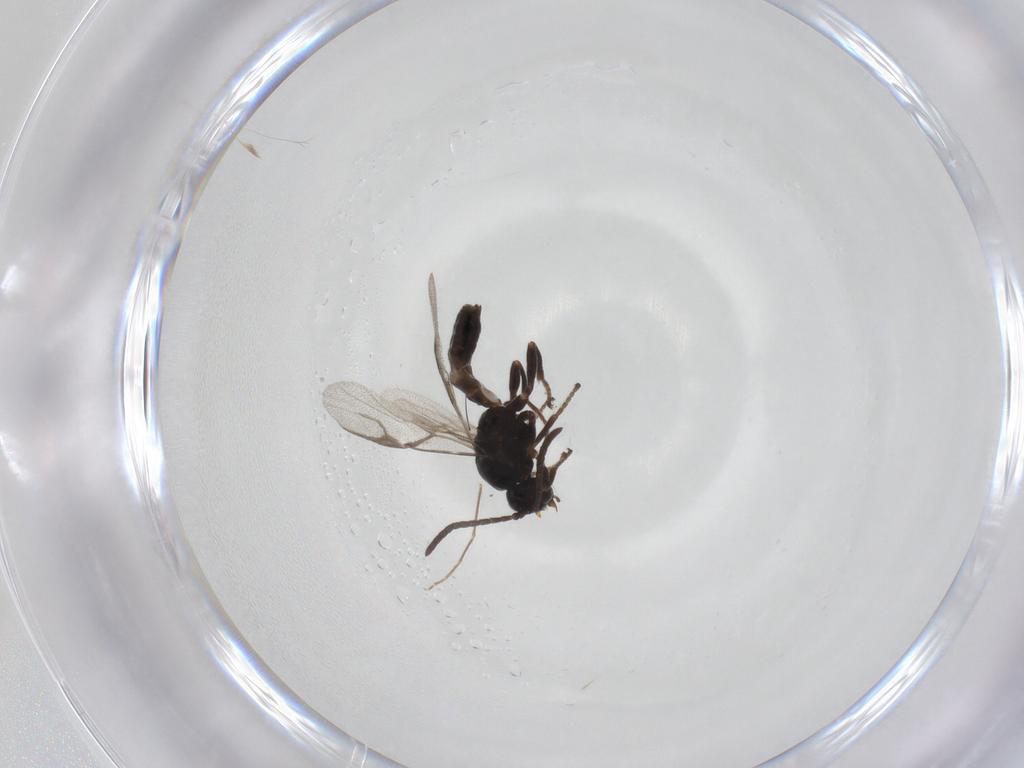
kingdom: Animalia
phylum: Arthropoda
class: Insecta
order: Hymenoptera
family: Braconidae
